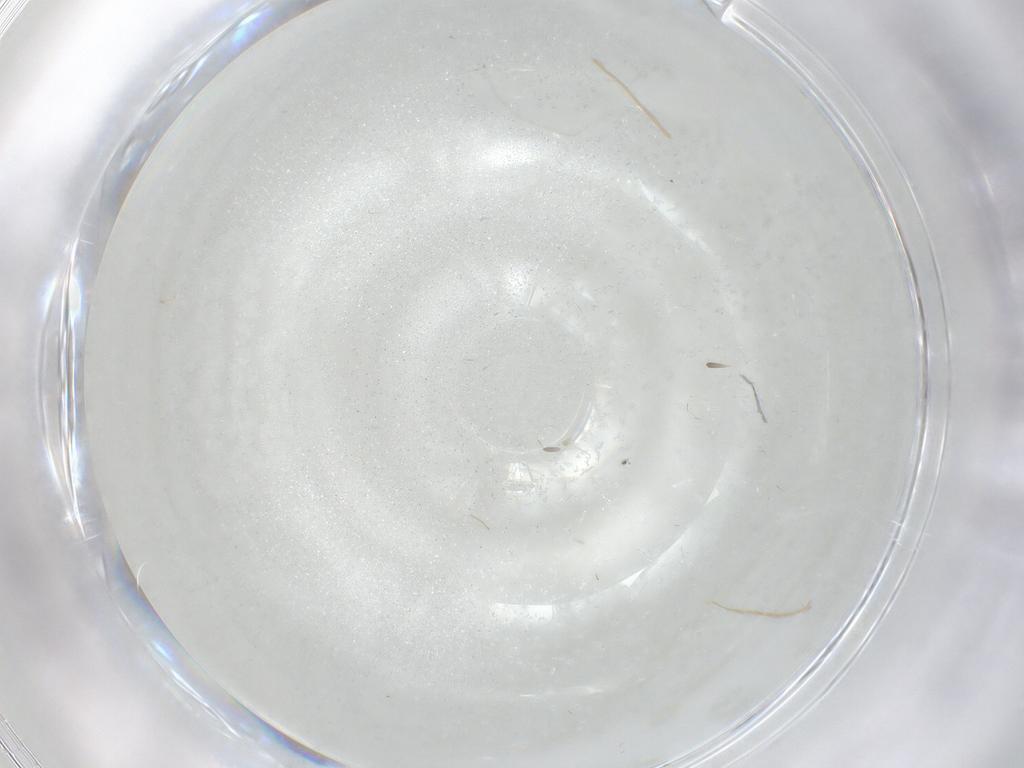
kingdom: Animalia
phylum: Arthropoda
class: Insecta
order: Diptera
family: Chironomidae
